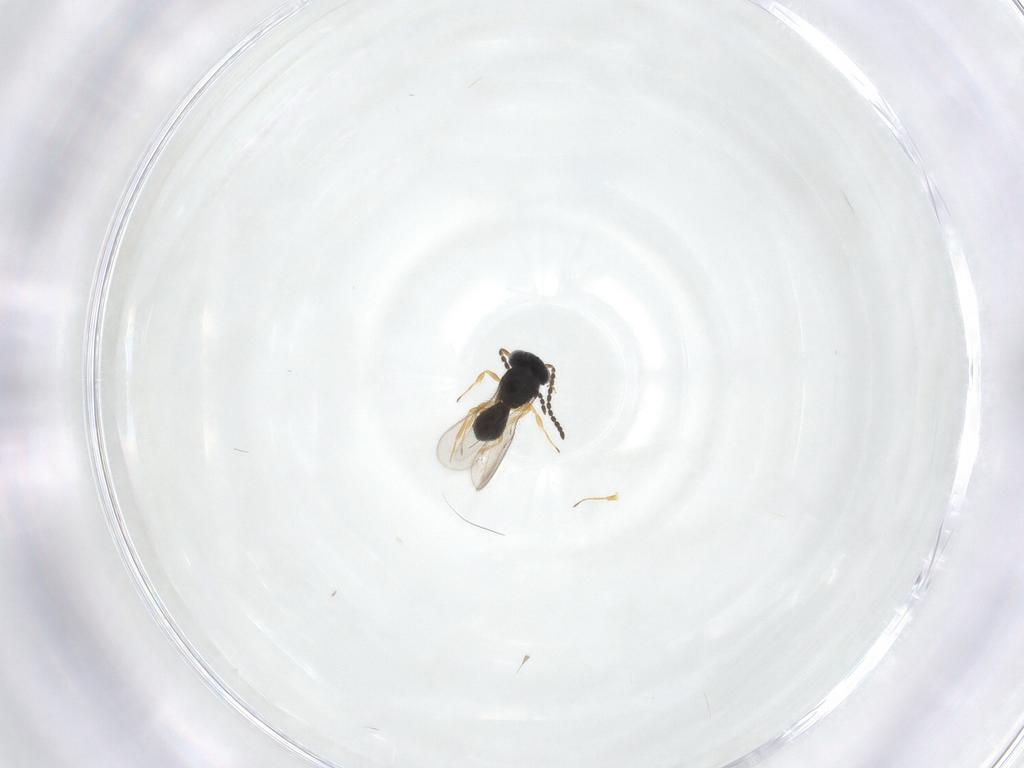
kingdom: Animalia
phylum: Arthropoda
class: Insecta
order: Hymenoptera
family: Scelionidae
